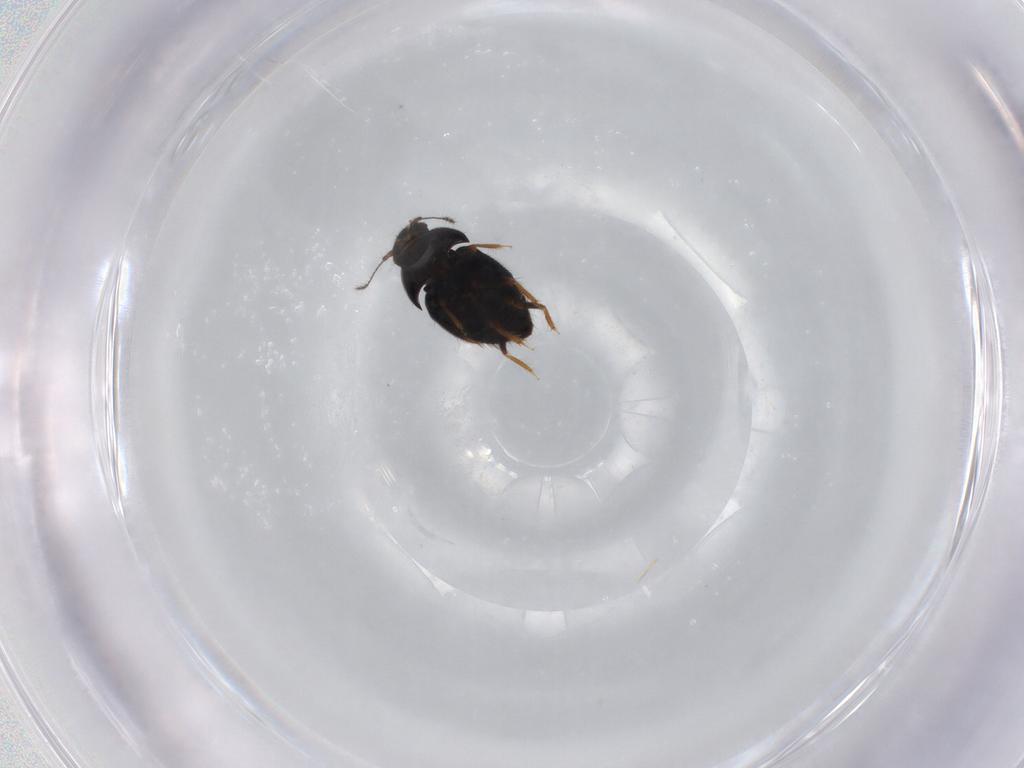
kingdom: Animalia
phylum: Arthropoda
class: Insecta
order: Coleoptera
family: Ptiliidae
